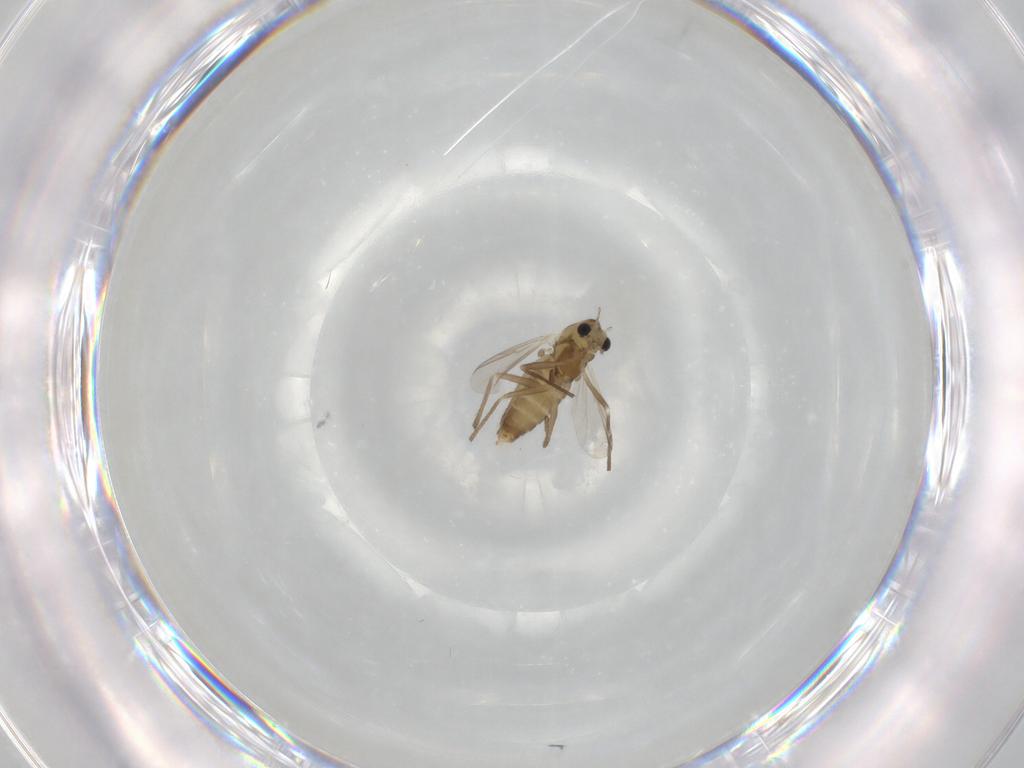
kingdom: Animalia
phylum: Arthropoda
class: Insecta
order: Diptera
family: Chironomidae
